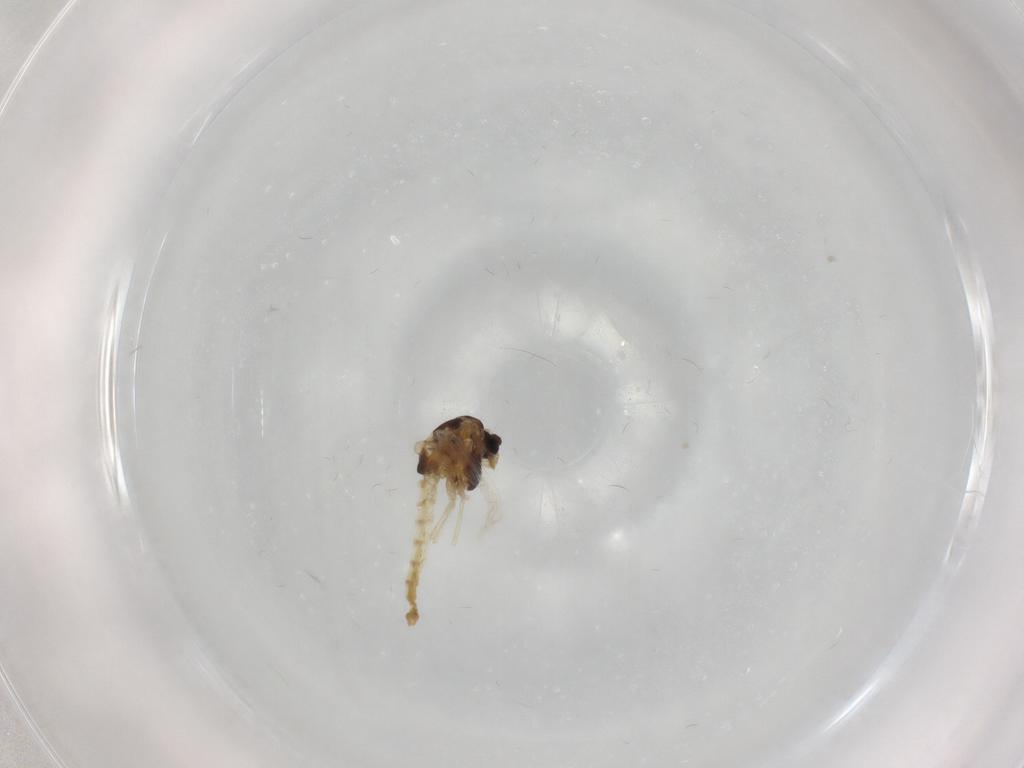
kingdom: Animalia
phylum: Arthropoda
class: Insecta
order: Diptera
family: Chironomidae
